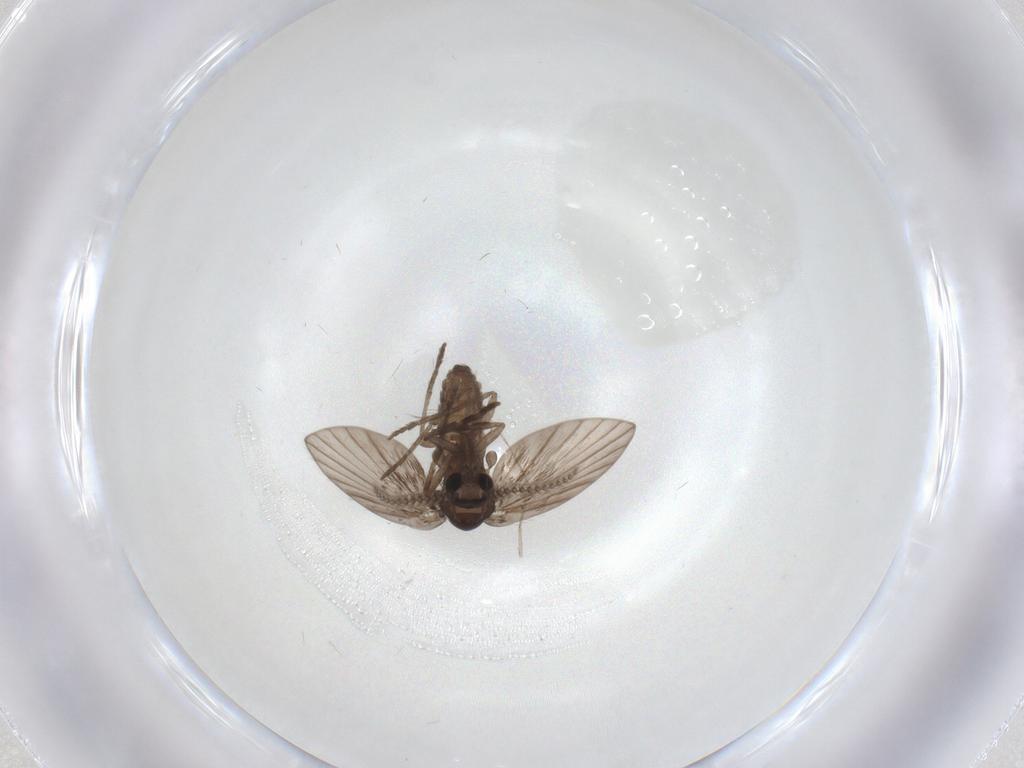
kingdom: Animalia
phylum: Arthropoda
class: Insecta
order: Diptera
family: Psychodidae
